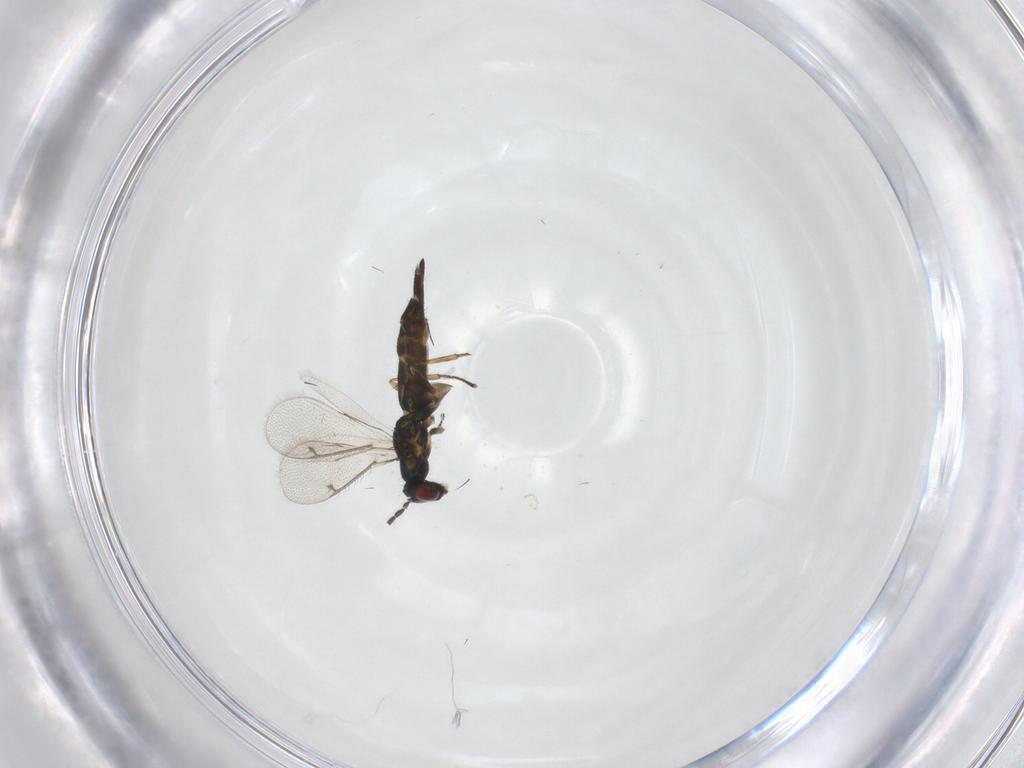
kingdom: Animalia
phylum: Arthropoda
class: Insecta
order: Hymenoptera
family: Eulophidae
